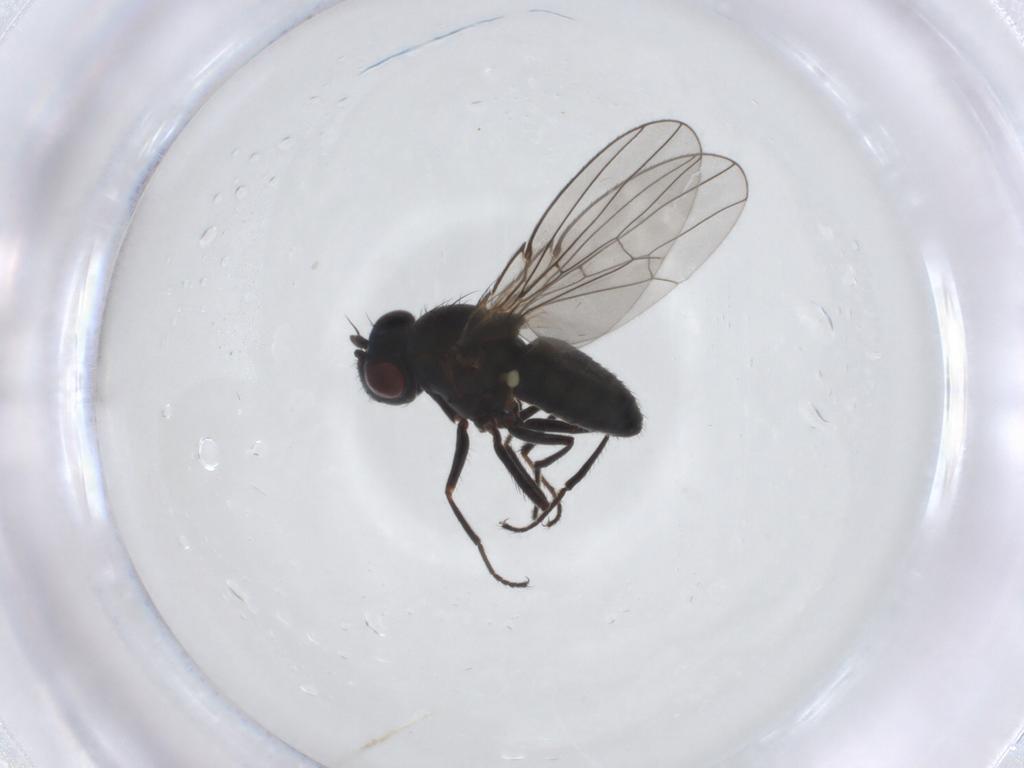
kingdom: Animalia
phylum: Arthropoda
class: Insecta
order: Diptera
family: Ephydridae
